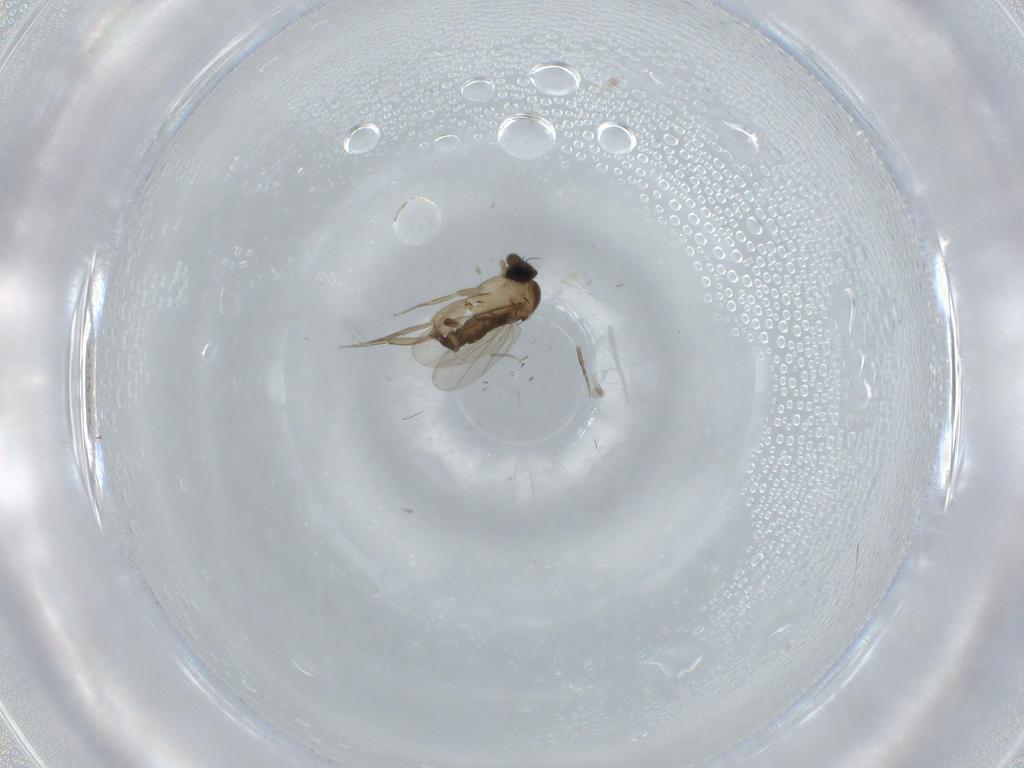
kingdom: Animalia
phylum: Arthropoda
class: Insecta
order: Diptera
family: Phoridae
